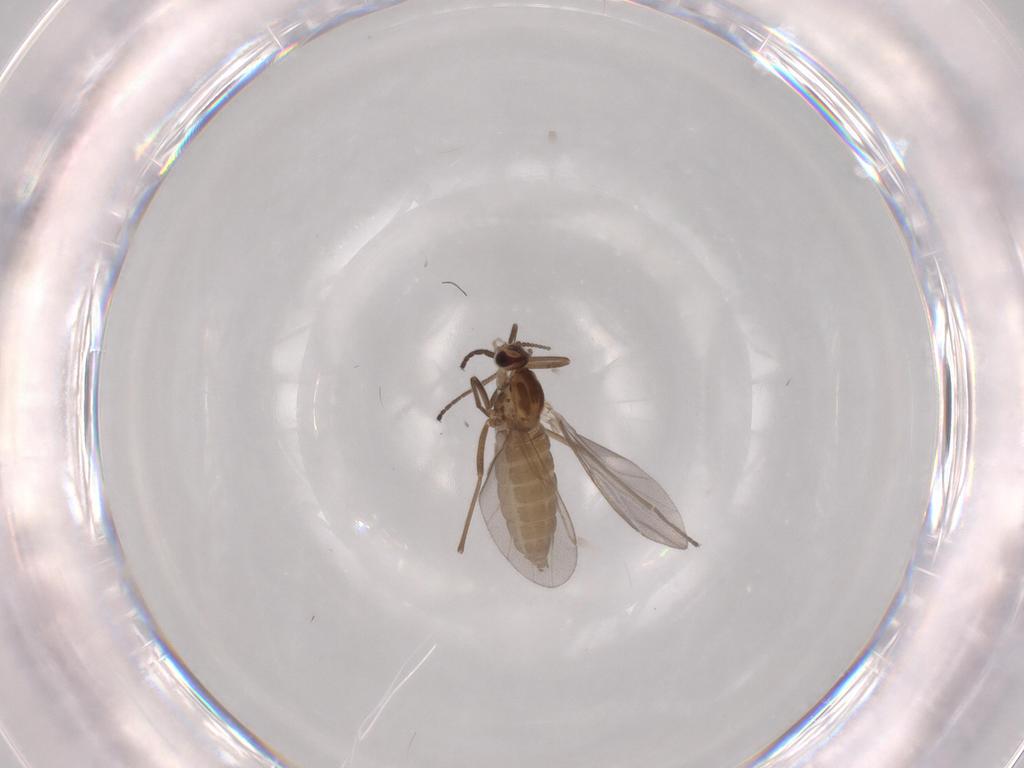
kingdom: Animalia
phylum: Arthropoda
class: Insecta
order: Diptera
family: Cecidomyiidae
